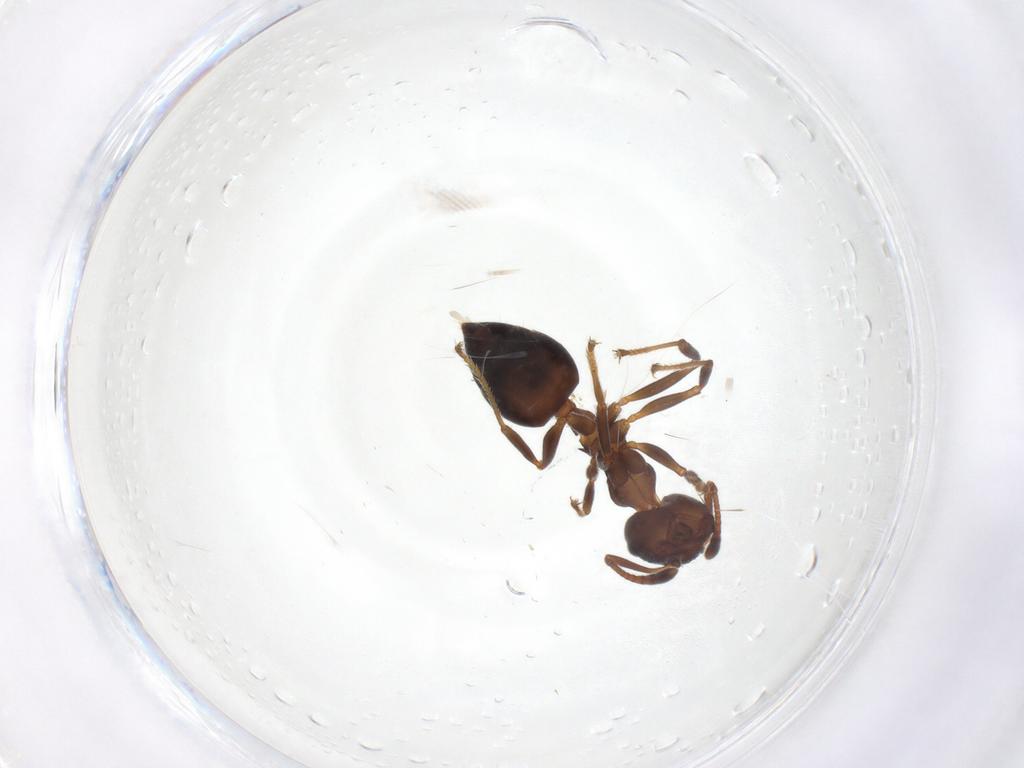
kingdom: Animalia
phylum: Arthropoda
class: Insecta
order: Hymenoptera
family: Formicidae
